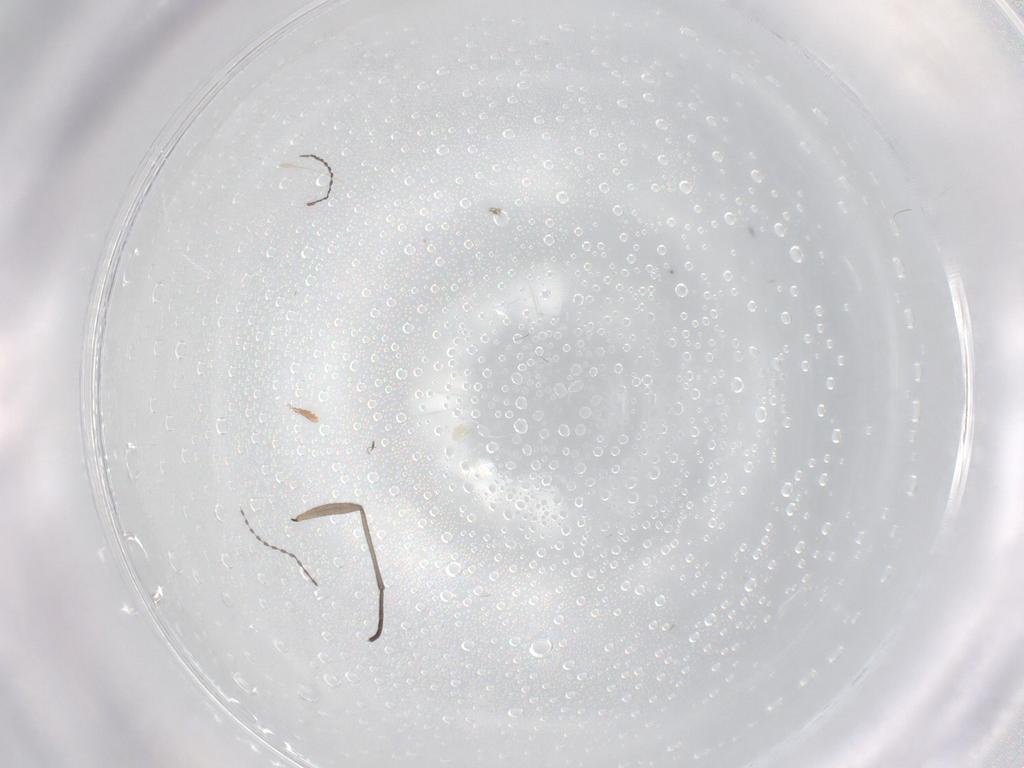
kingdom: Animalia
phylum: Arthropoda
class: Insecta
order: Diptera
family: Sciaridae
